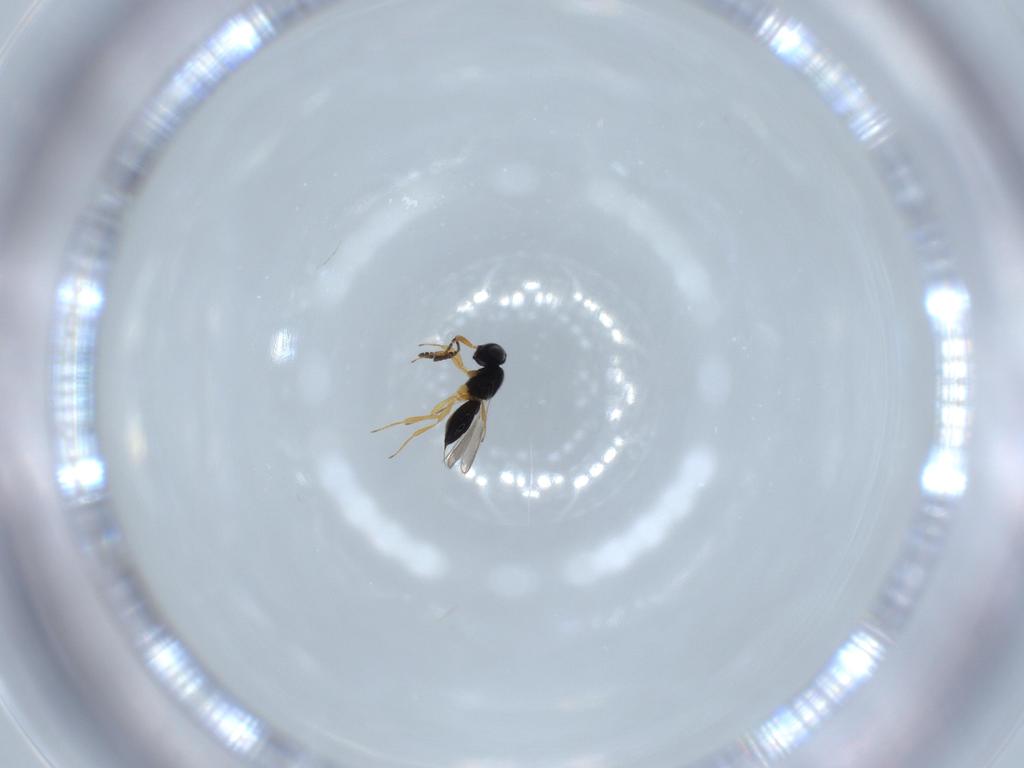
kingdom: Animalia
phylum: Arthropoda
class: Insecta
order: Hymenoptera
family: Scelionidae
